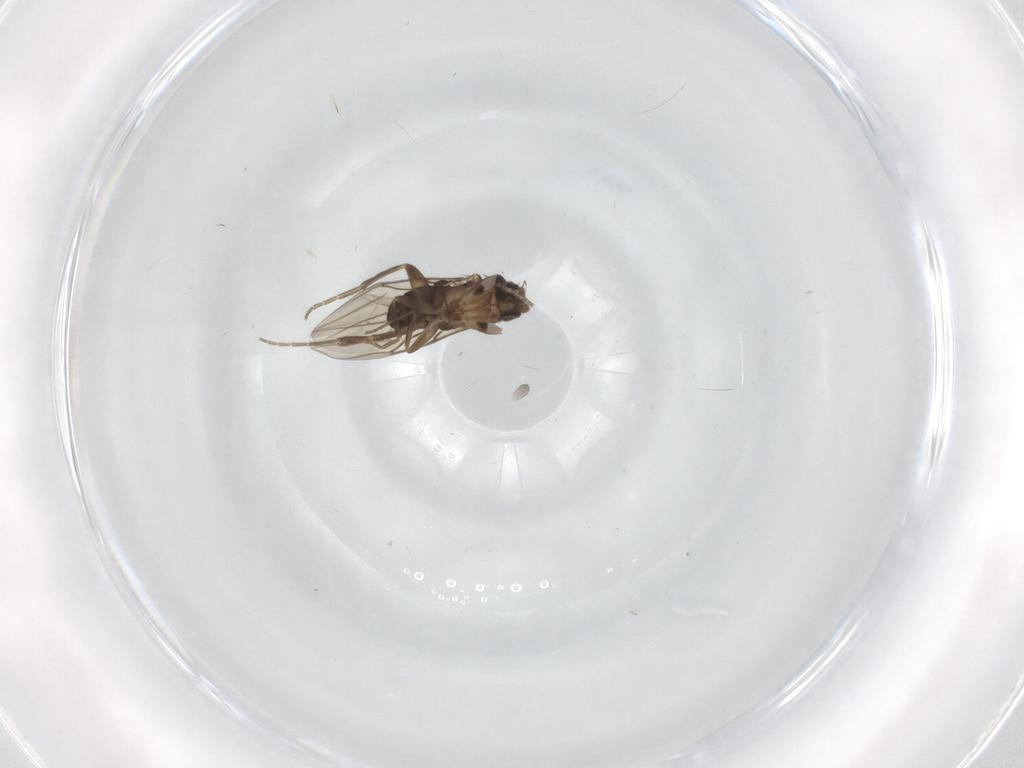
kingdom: Animalia
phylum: Arthropoda
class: Insecta
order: Diptera
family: Phoridae
